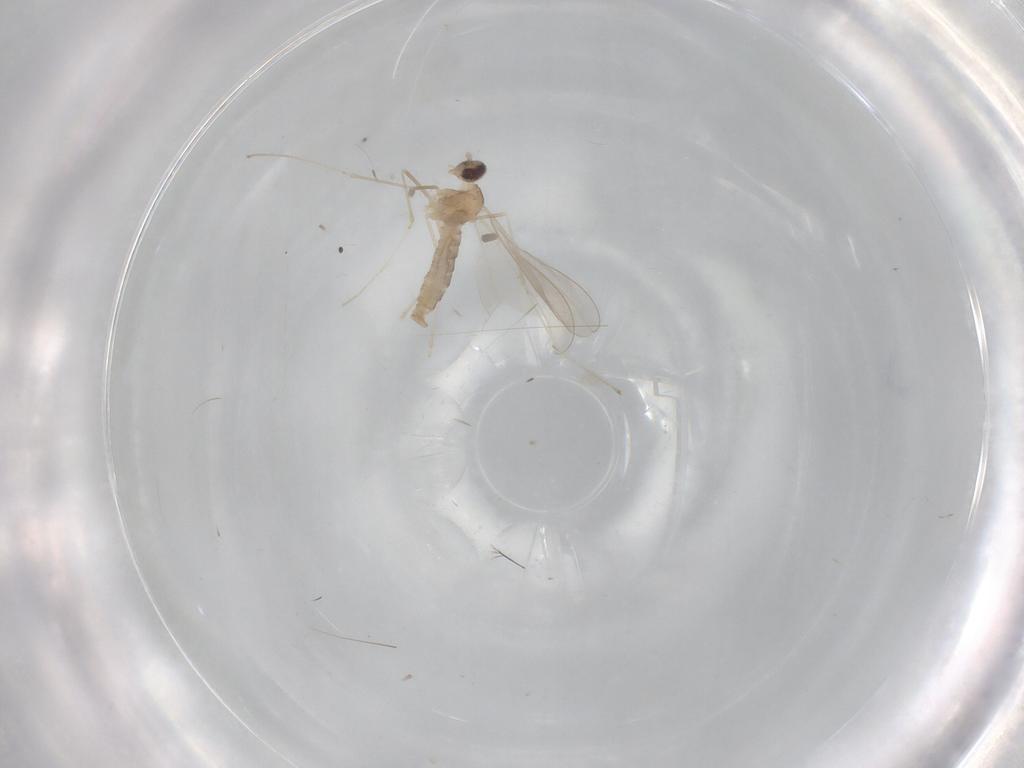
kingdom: Animalia
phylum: Arthropoda
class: Insecta
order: Diptera
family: Cecidomyiidae
